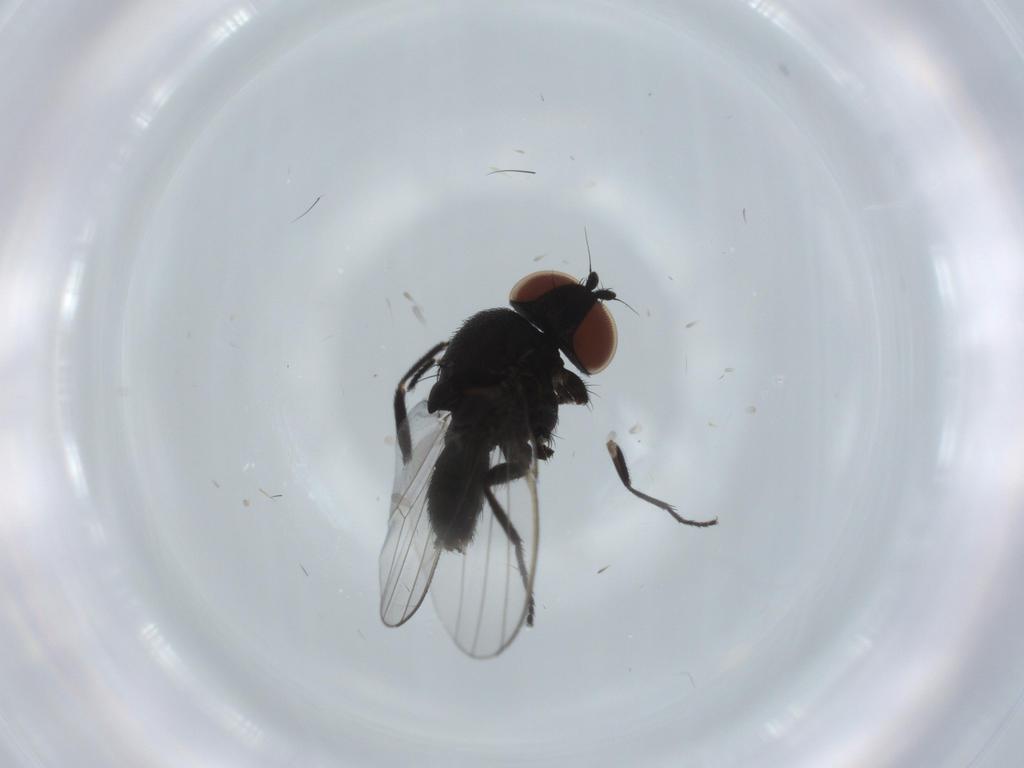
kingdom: Animalia
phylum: Arthropoda
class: Insecta
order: Diptera
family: Milichiidae
